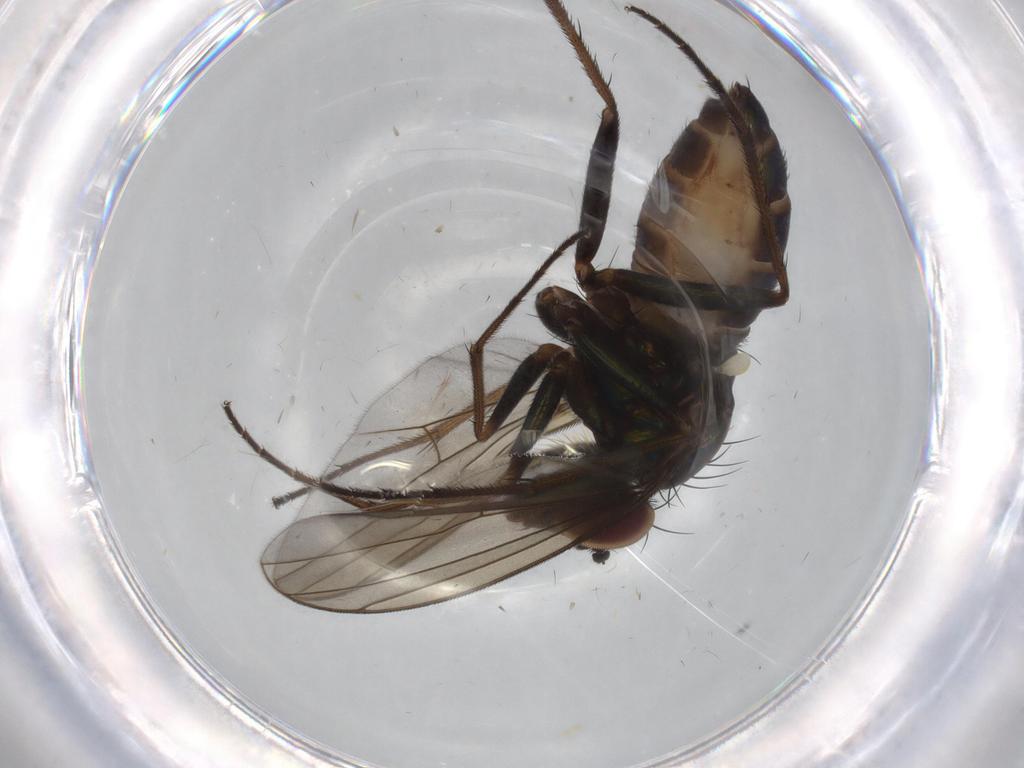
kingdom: Animalia
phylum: Arthropoda
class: Insecta
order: Diptera
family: Dolichopodidae
